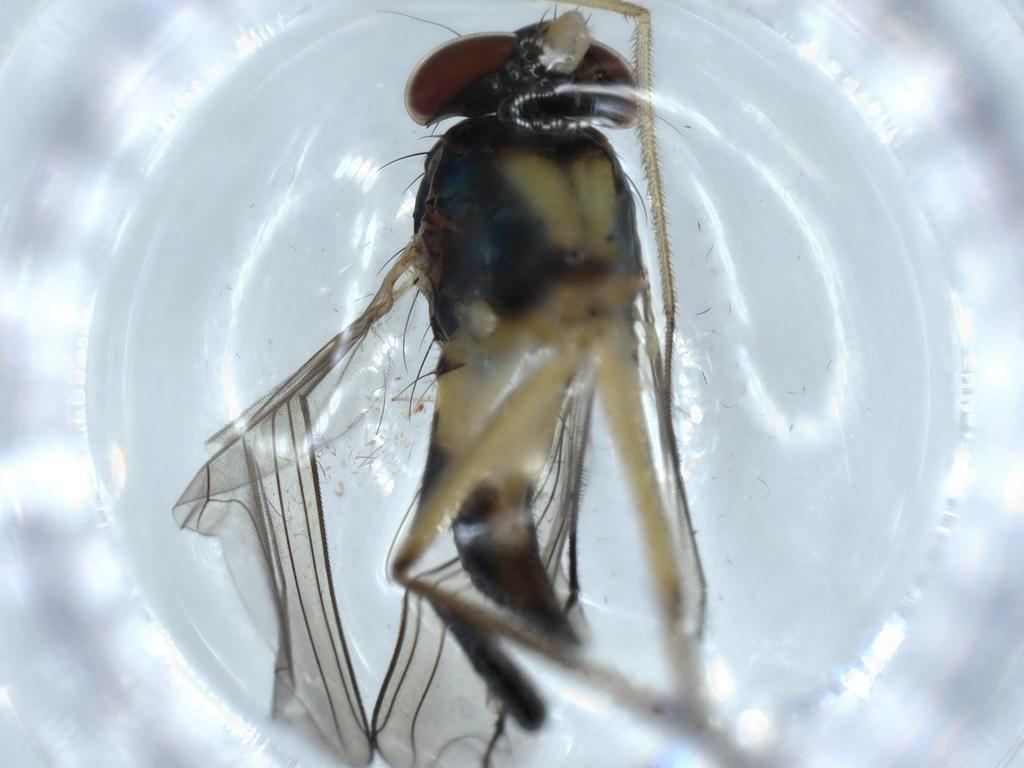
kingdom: Animalia
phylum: Arthropoda
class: Insecta
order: Diptera
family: Dolichopodidae
